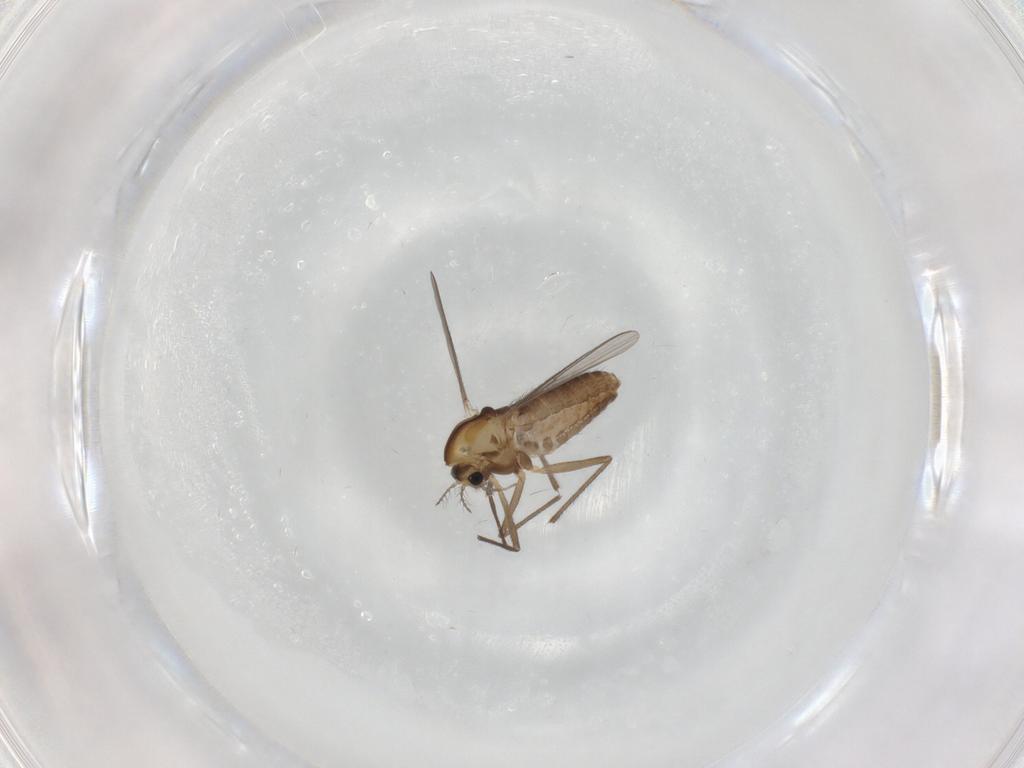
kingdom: Animalia
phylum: Arthropoda
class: Insecta
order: Diptera
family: Chironomidae
